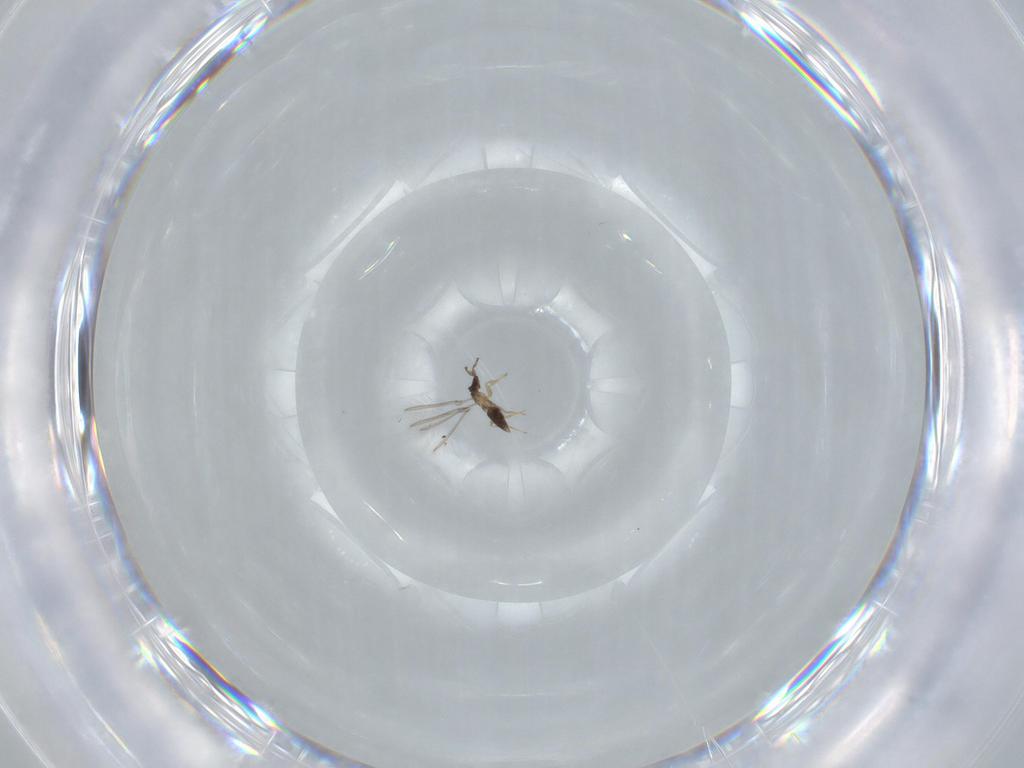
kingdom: Animalia
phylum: Arthropoda
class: Insecta
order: Hymenoptera
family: Mymaridae
